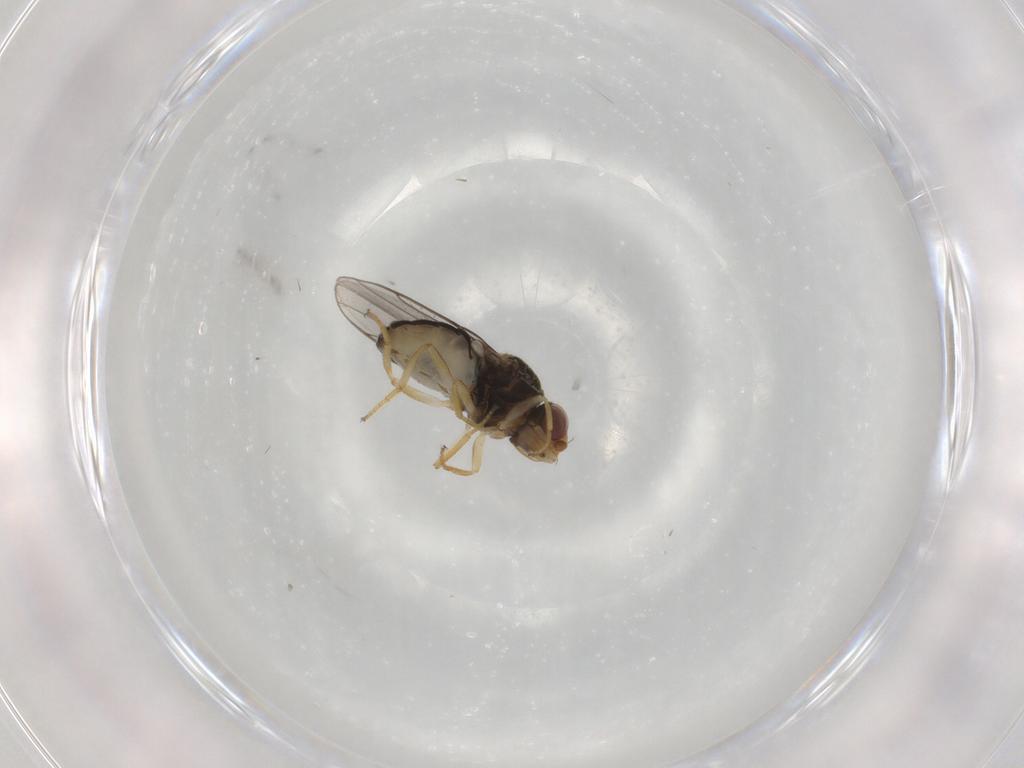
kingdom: Animalia
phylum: Arthropoda
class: Insecta
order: Diptera
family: Chloropidae
